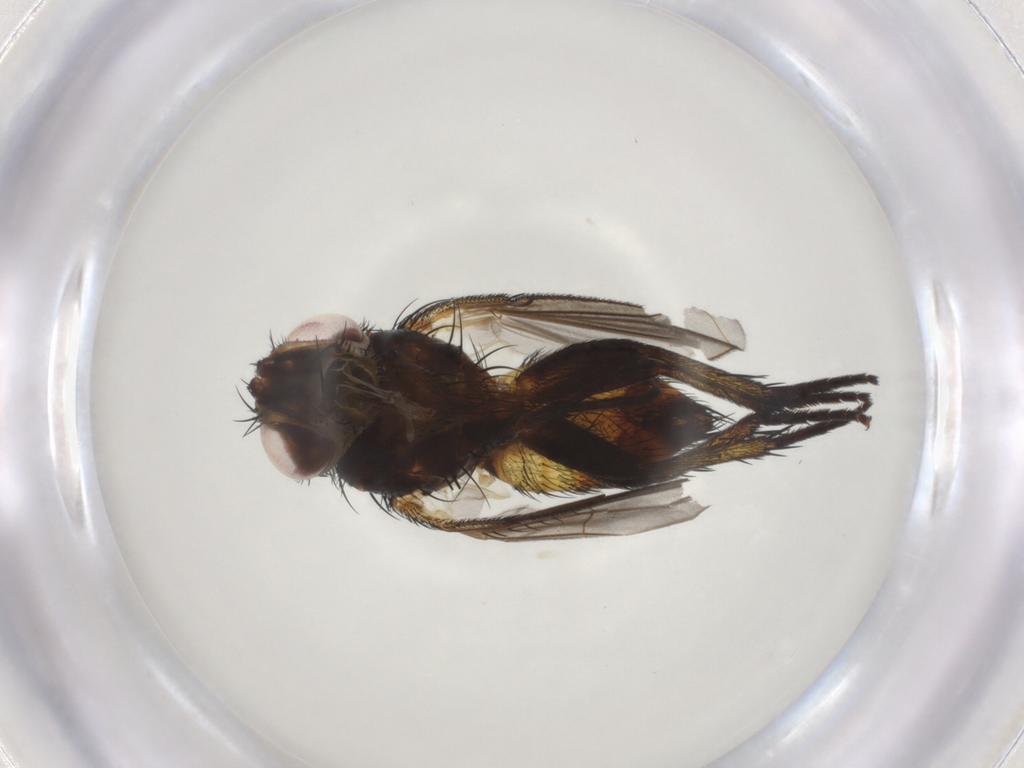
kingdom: Animalia
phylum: Arthropoda
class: Insecta
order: Diptera
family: Tachinidae
